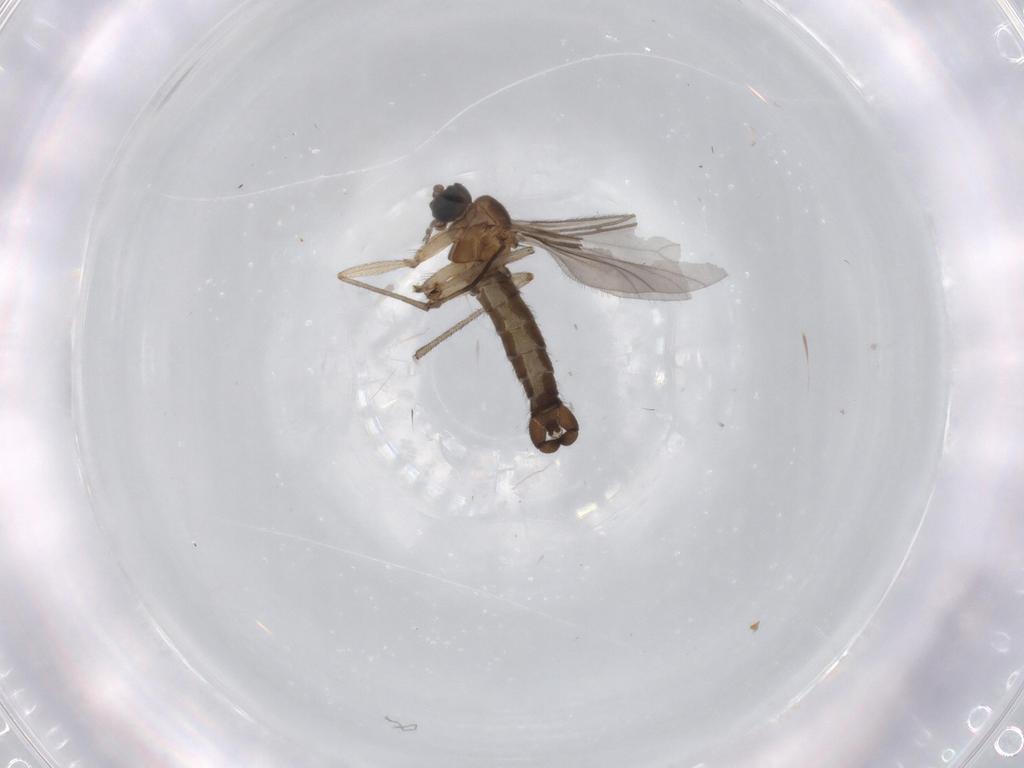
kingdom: Animalia
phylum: Arthropoda
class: Insecta
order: Diptera
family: Sciaridae
